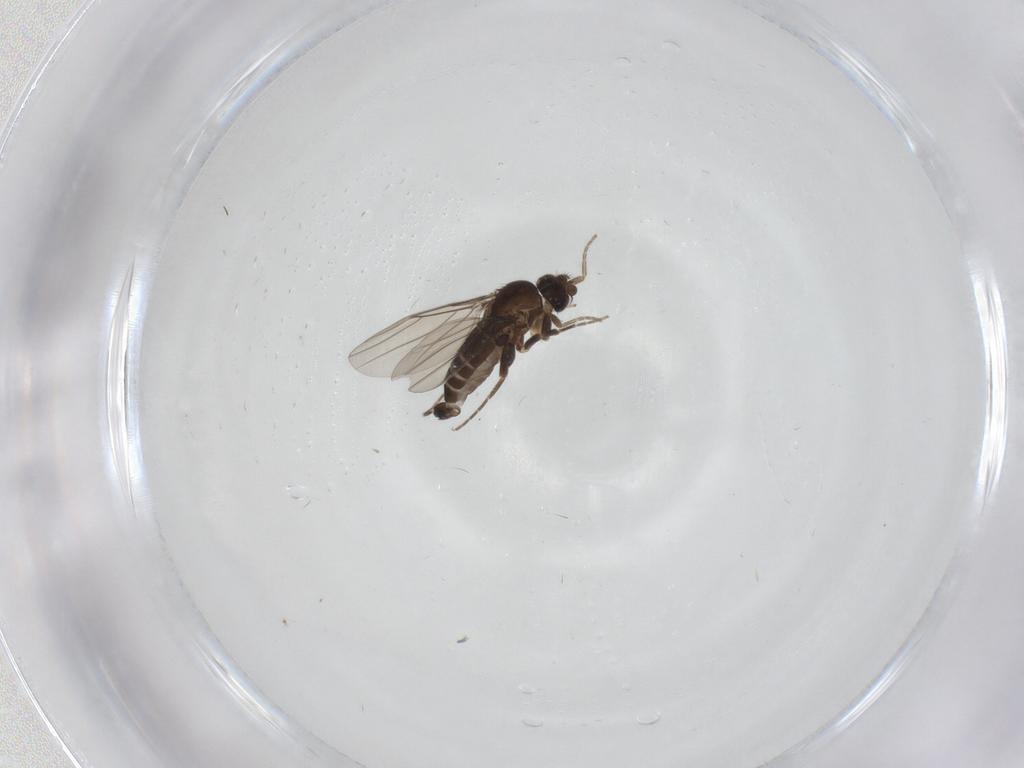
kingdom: Animalia
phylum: Arthropoda
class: Insecta
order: Diptera
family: Phoridae
